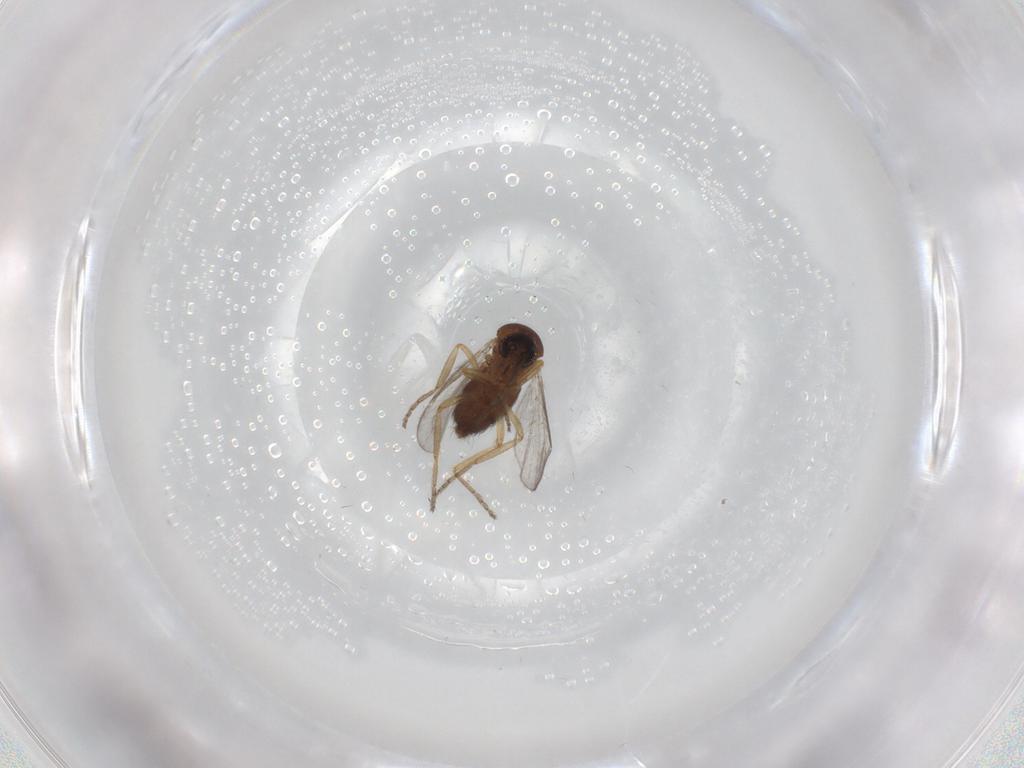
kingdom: Animalia
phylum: Arthropoda
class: Insecta
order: Diptera
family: Ceratopogonidae
